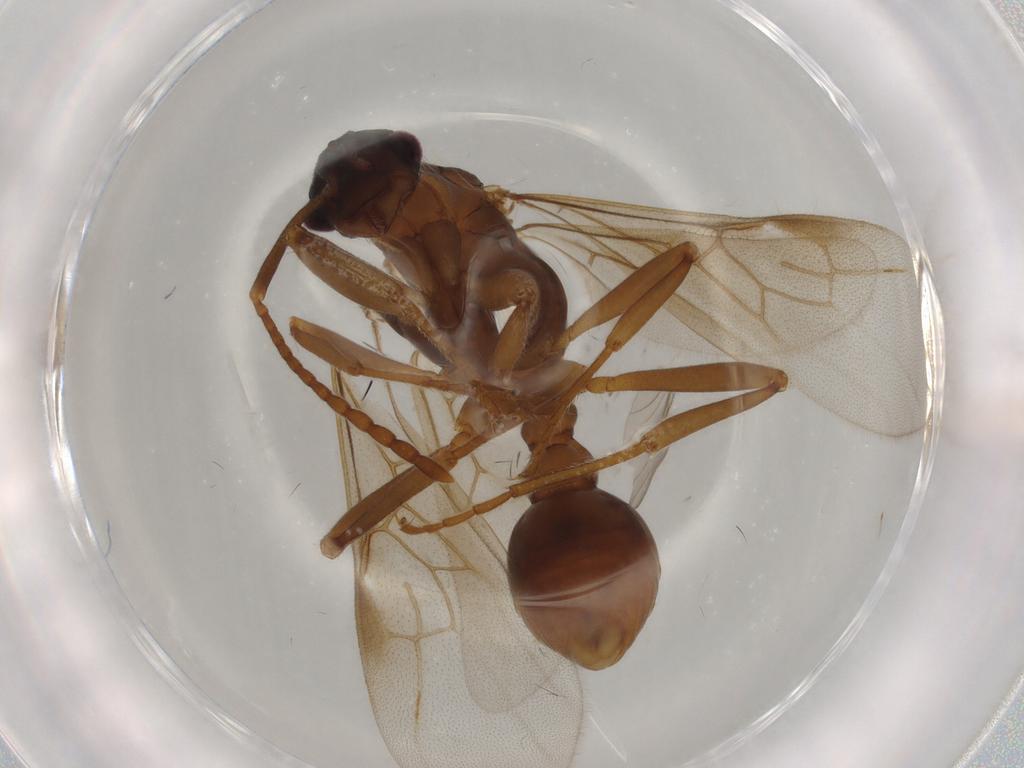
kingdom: Animalia
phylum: Arthropoda
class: Insecta
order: Hymenoptera
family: Formicidae
